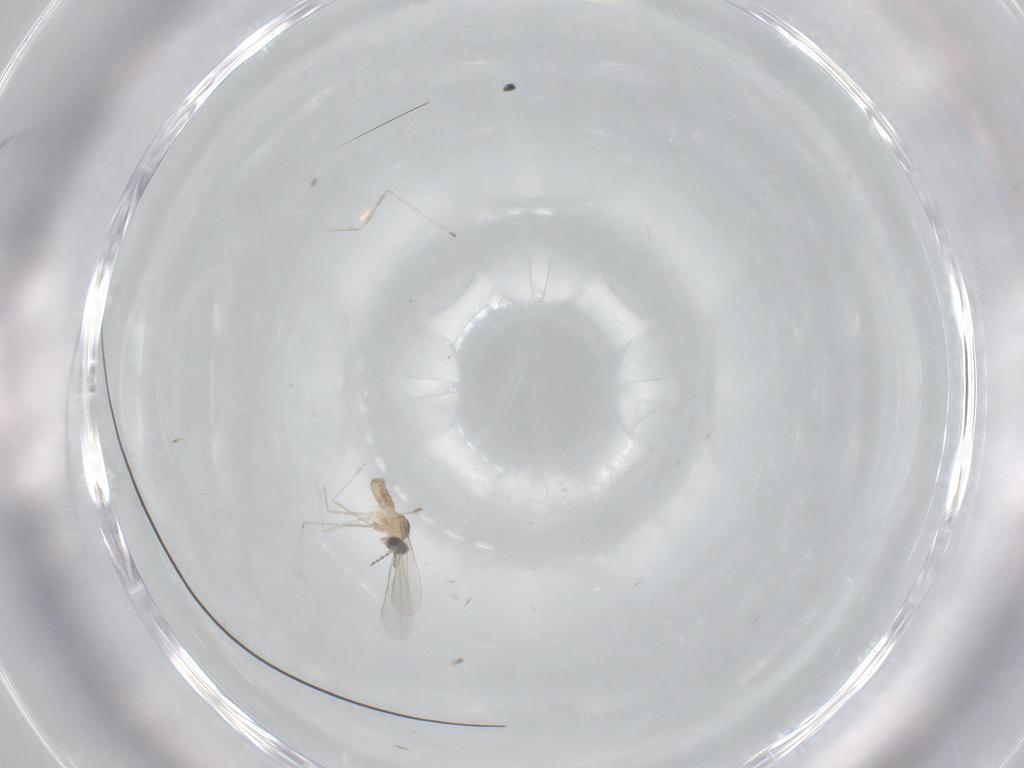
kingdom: Animalia
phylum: Arthropoda
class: Insecta
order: Diptera
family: Cecidomyiidae
